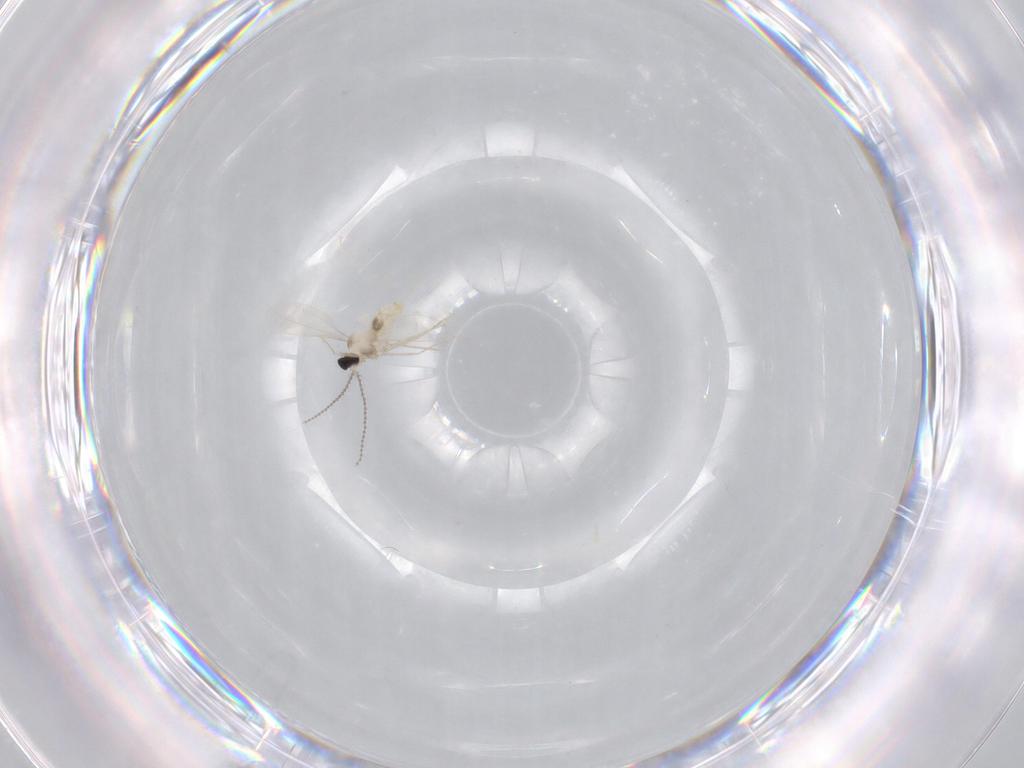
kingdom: Animalia
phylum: Arthropoda
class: Insecta
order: Diptera
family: Cecidomyiidae
